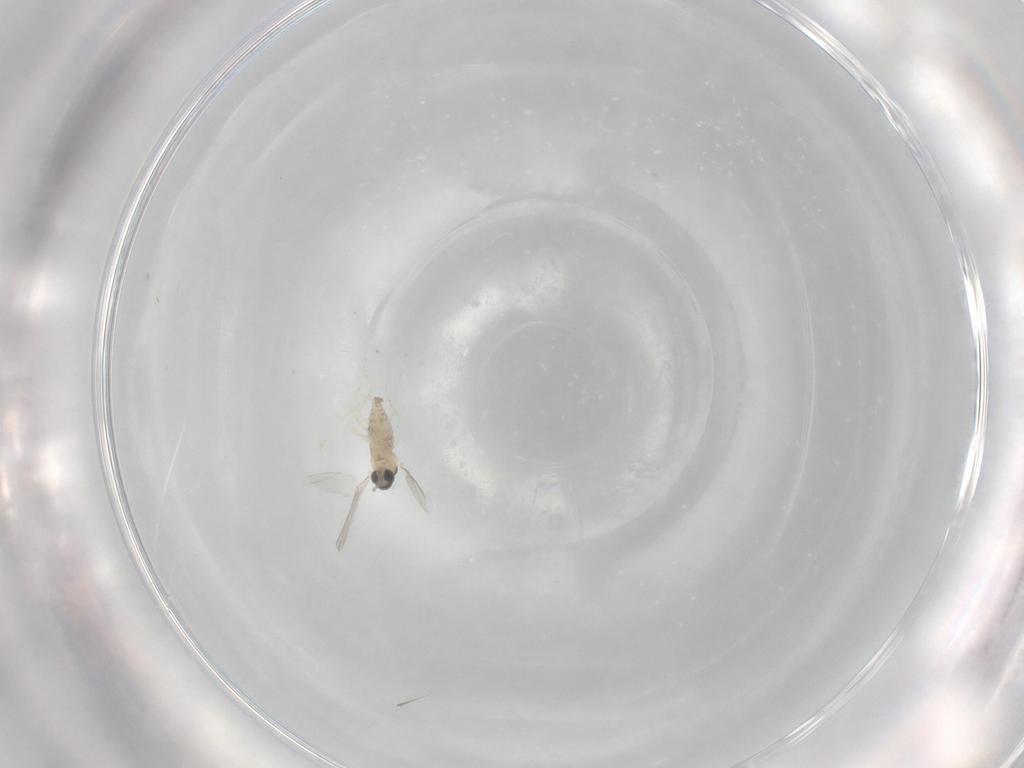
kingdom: Animalia
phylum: Arthropoda
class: Insecta
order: Diptera
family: Cecidomyiidae
